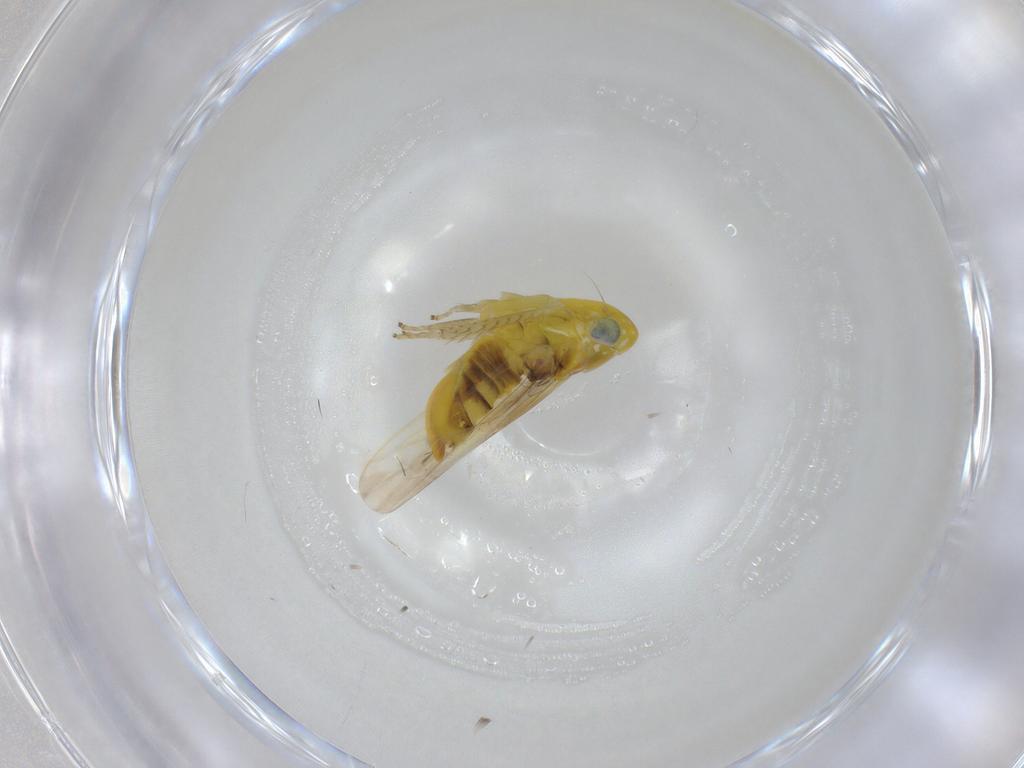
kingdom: Animalia
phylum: Arthropoda
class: Insecta
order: Hemiptera
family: Cicadellidae
